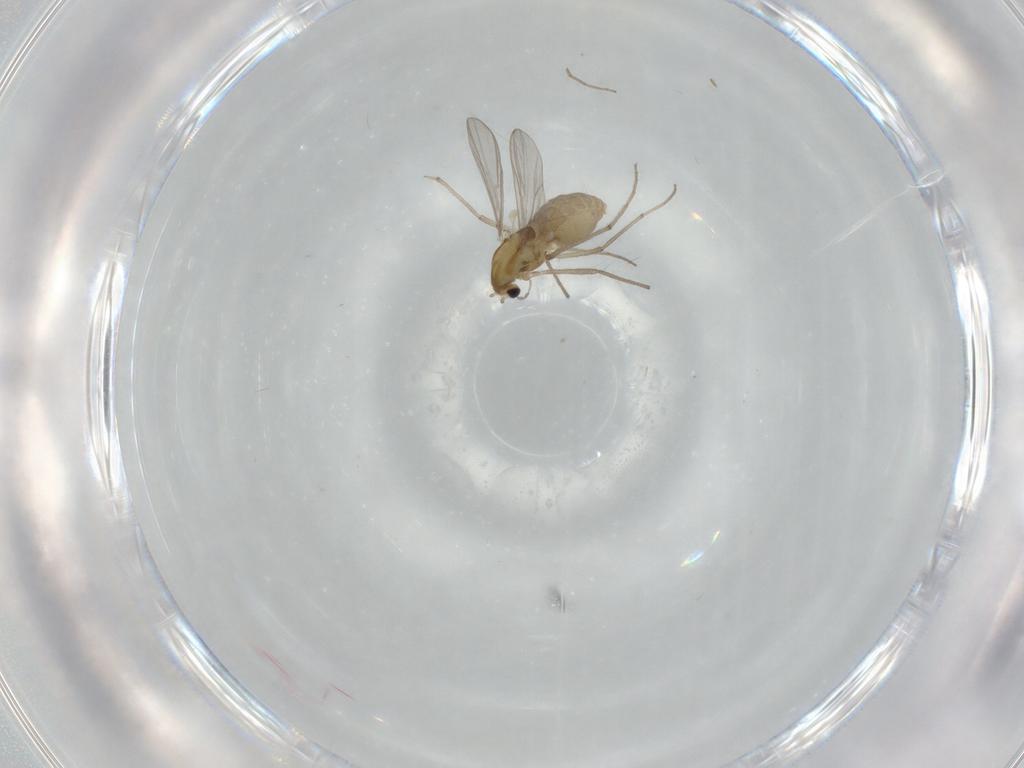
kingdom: Animalia
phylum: Arthropoda
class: Insecta
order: Diptera
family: Chironomidae
